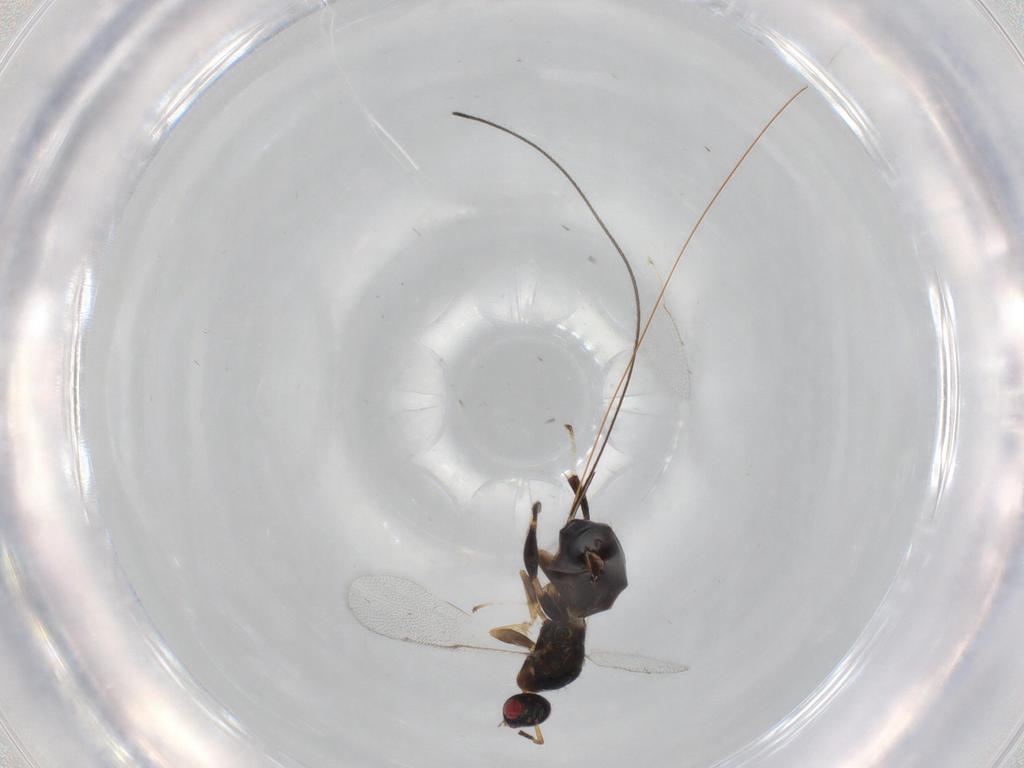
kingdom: Animalia
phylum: Arthropoda
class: Insecta
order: Hymenoptera
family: Torymidae
